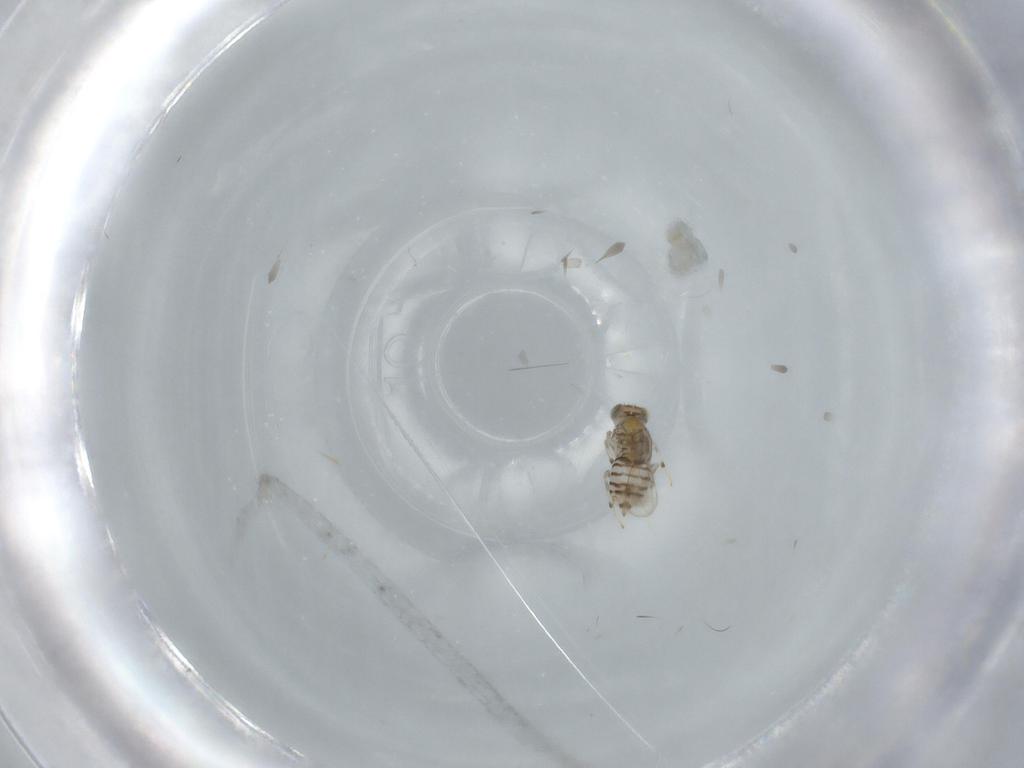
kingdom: Animalia
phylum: Arthropoda
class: Insecta
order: Hymenoptera
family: Aphelinidae
